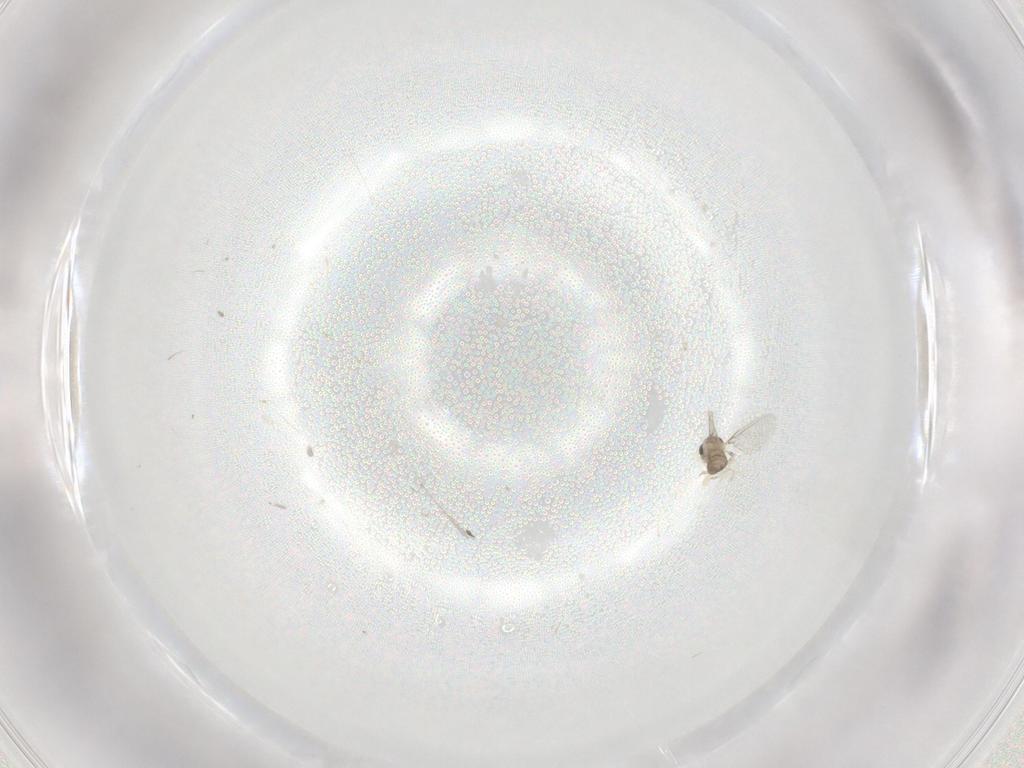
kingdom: Animalia
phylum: Arthropoda
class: Insecta
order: Diptera
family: Cecidomyiidae
